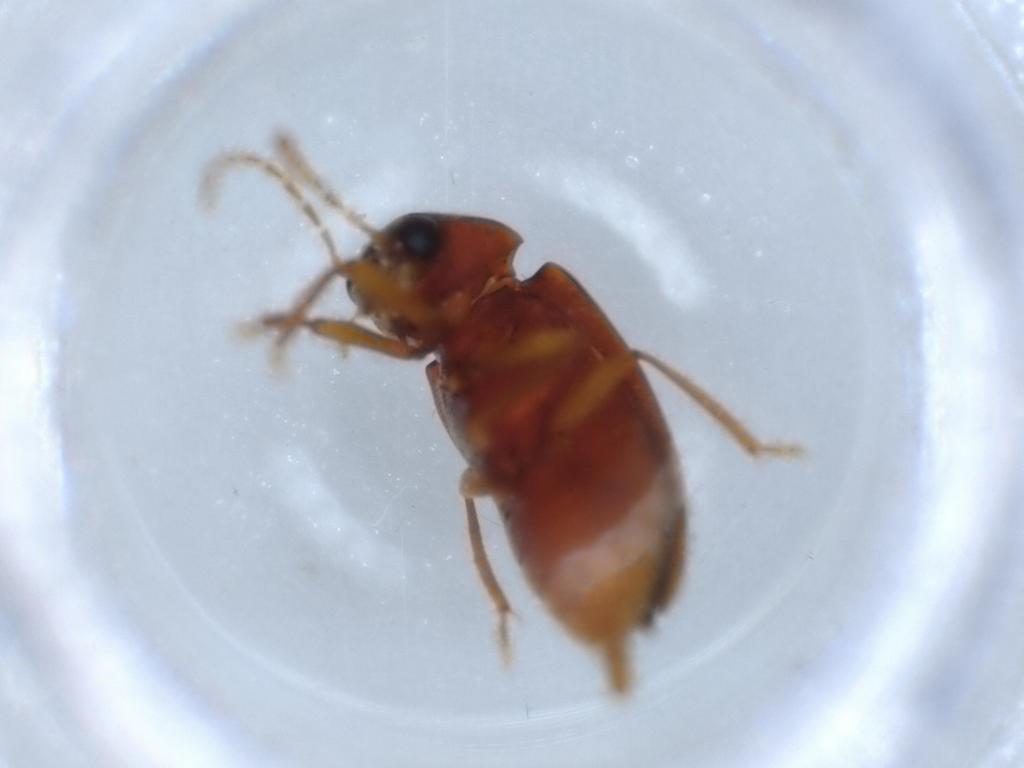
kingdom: Animalia
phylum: Arthropoda
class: Insecta
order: Coleoptera
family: Ptilodactylidae
